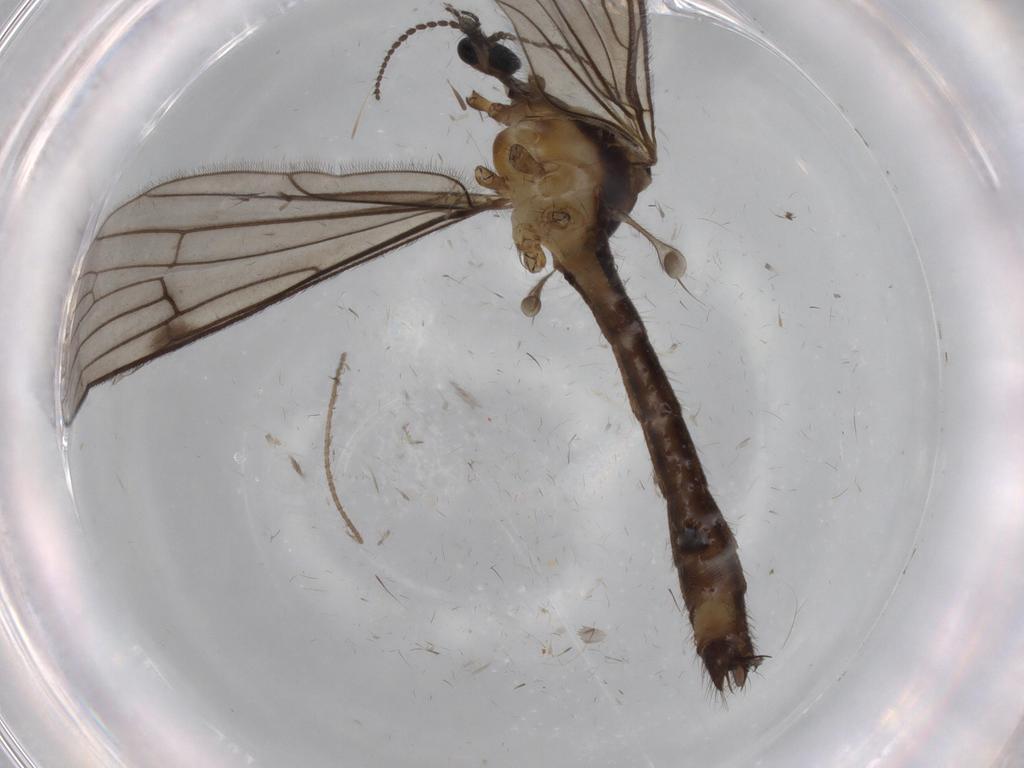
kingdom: Animalia
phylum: Arthropoda
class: Insecta
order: Diptera
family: Limoniidae
